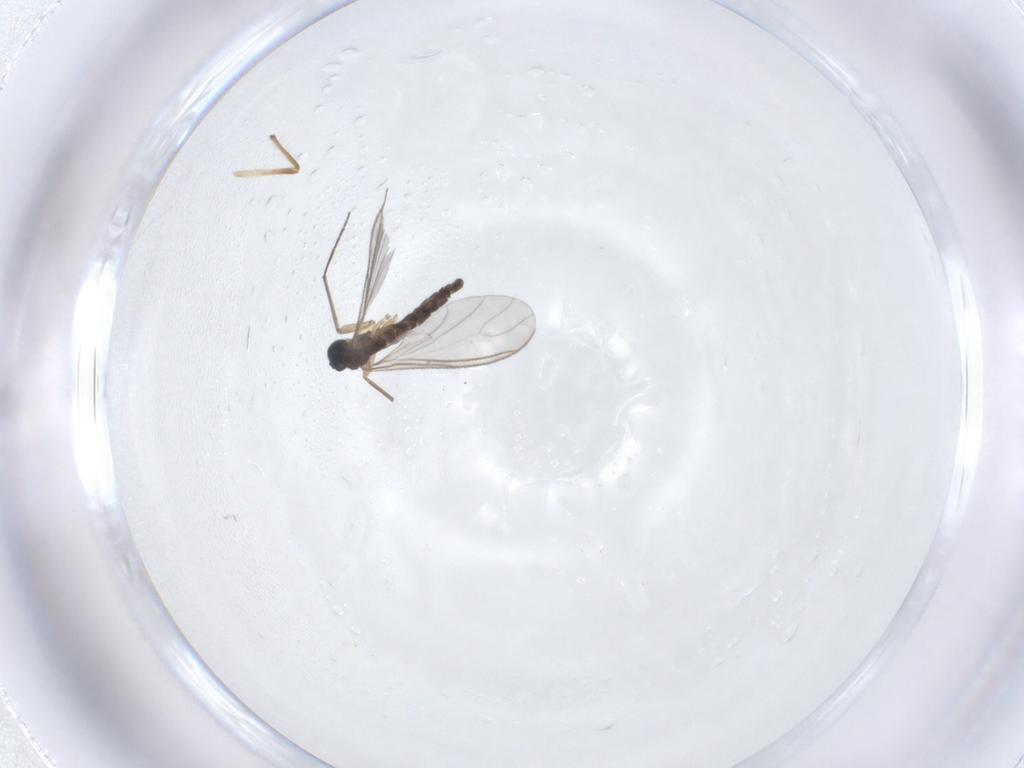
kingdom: Animalia
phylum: Arthropoda
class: Insecta
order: Diptera
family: Sciaridae
